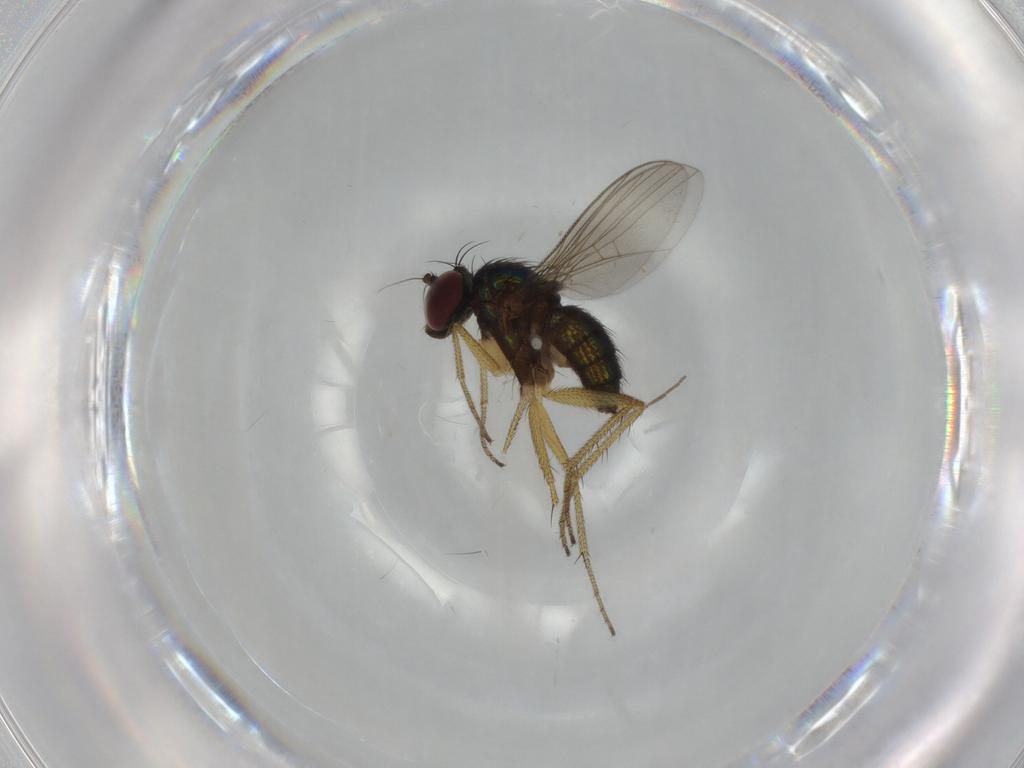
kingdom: Animalia
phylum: Arthropoda
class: Insecta
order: Diptera
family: Dolichopodidae
